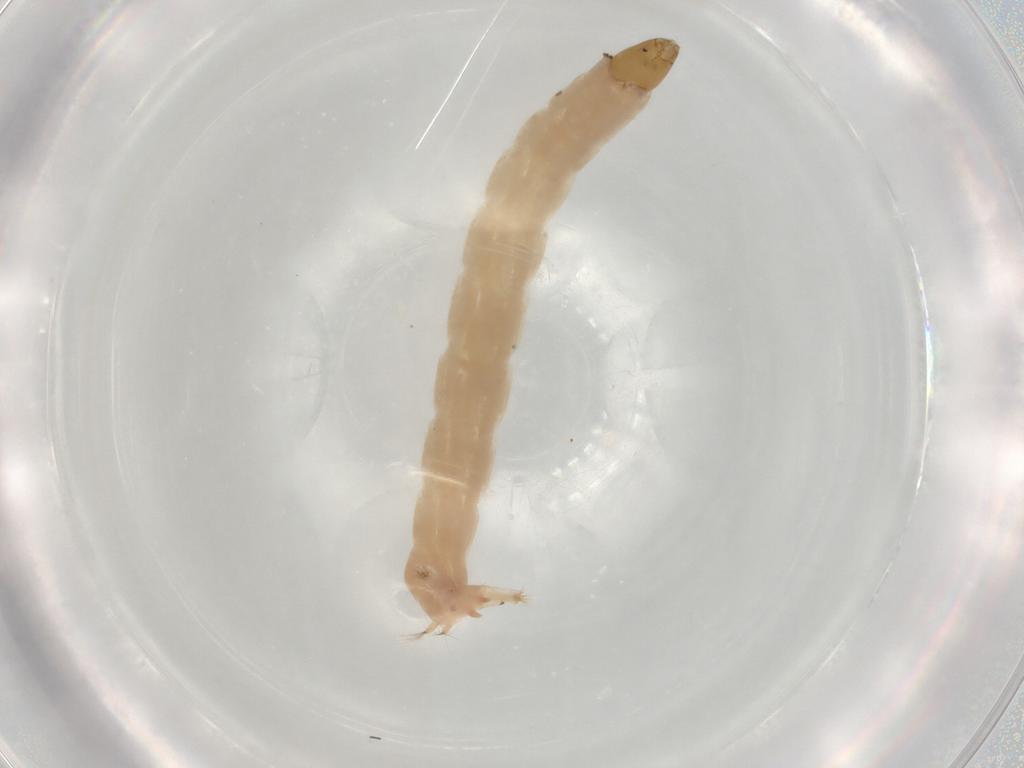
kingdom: Animalia
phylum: Arthropoda
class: Insecta
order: Diptera
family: Chironomidae
